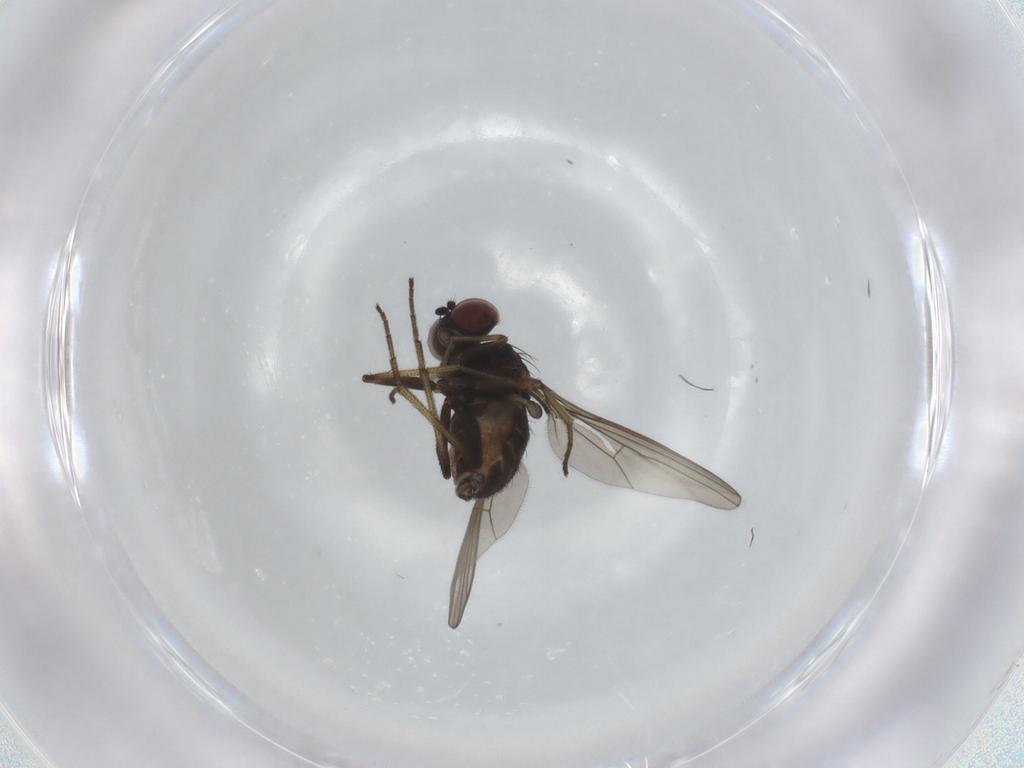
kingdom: Animalia
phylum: Arthropoda
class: Insecta
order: Diptera
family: Dolichopodidae
